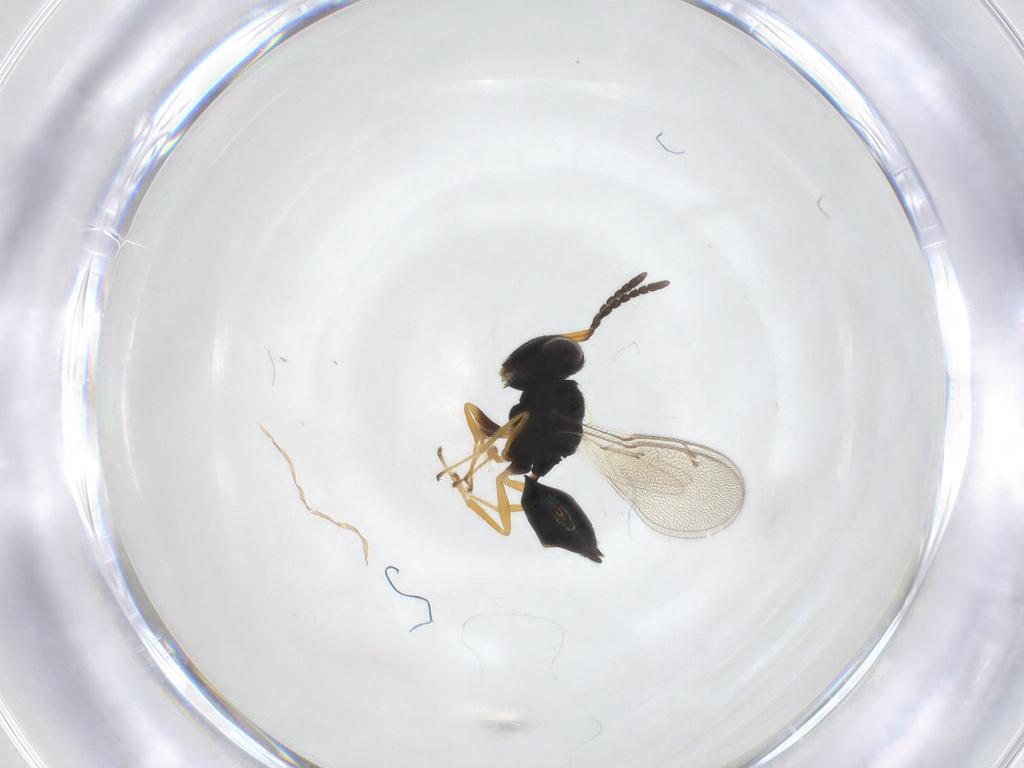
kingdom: Animalia
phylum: Arthropoda
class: Insecta
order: Hymenoptera
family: Pteromalidae
